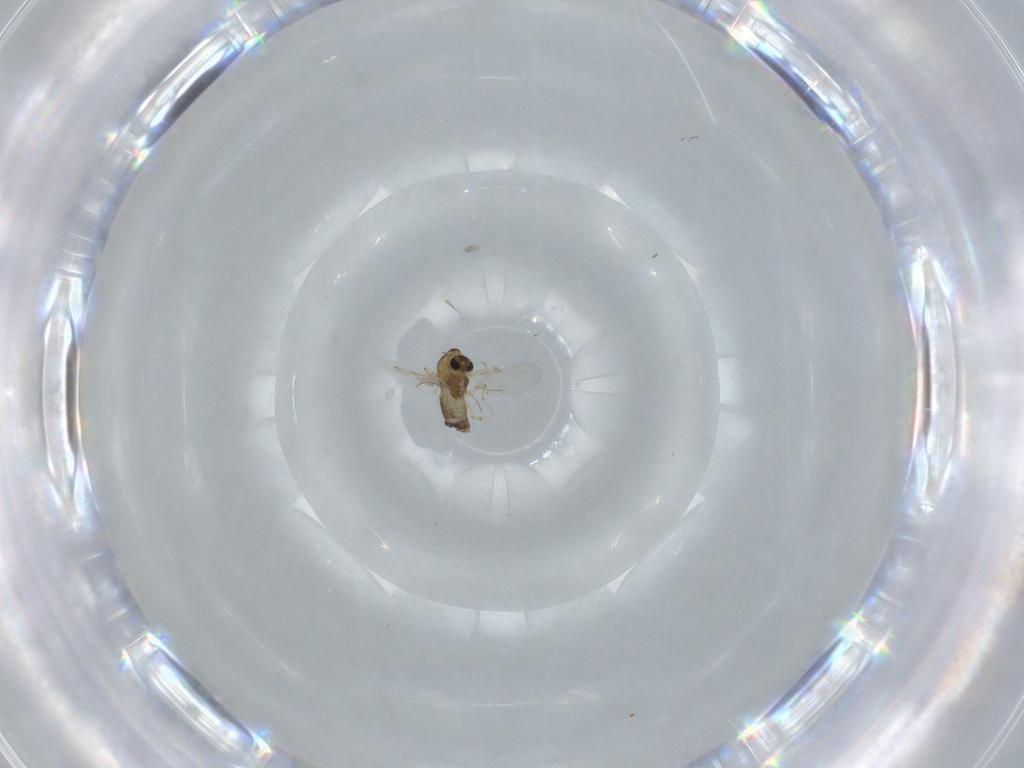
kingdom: Animalia
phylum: Arthropoda
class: Insecta
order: Diptera
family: Chironomidae
